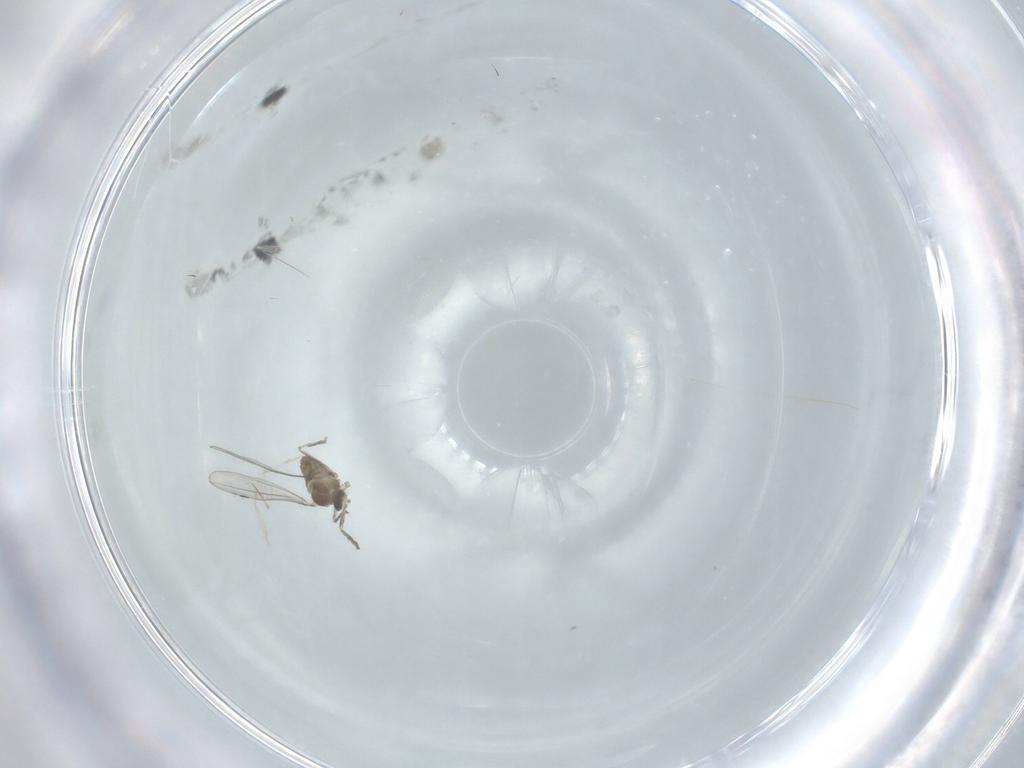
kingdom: Animalia
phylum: Arthropoda
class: Insecta
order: Diptera
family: Cecidomyiidae
